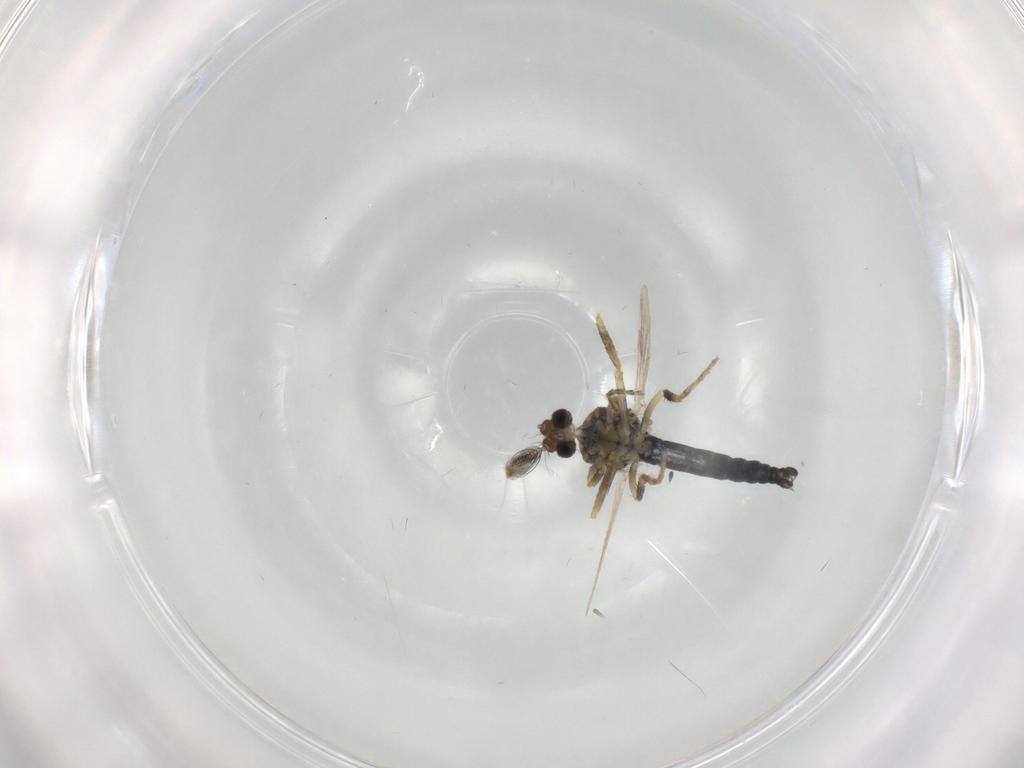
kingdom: Animalia
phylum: Arthropoda
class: Insecta
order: Diptera
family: Ceratopogonidae
